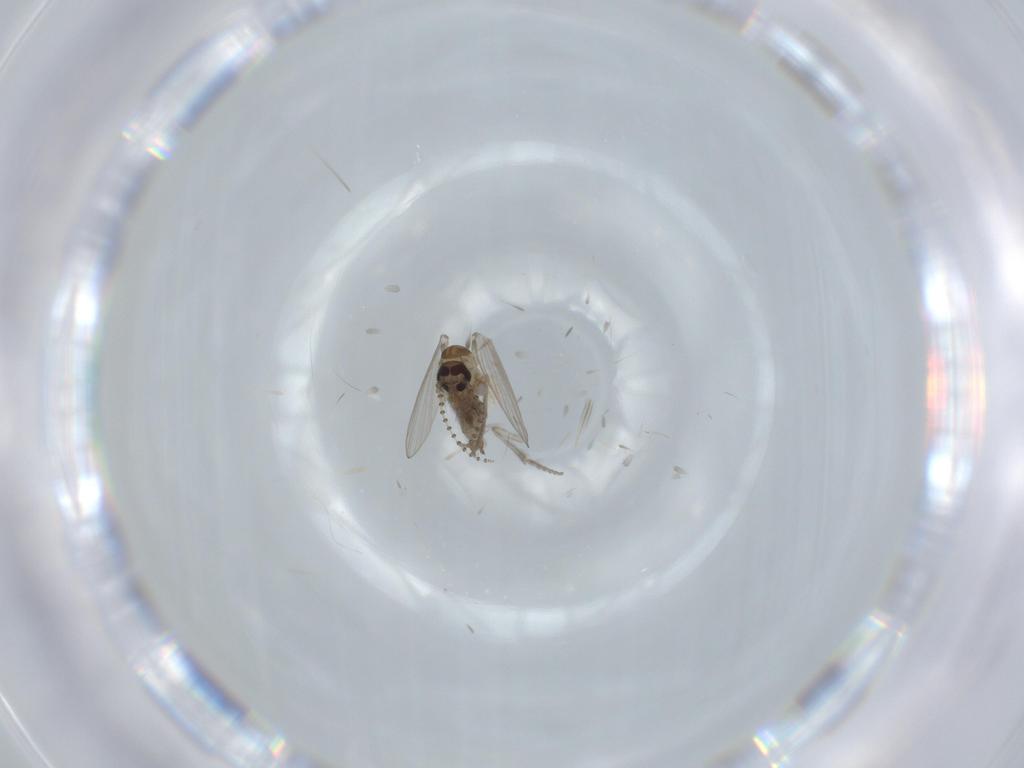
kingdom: Animalia
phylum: Arthropoda
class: Insecta
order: Diptera
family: Psychodidae
